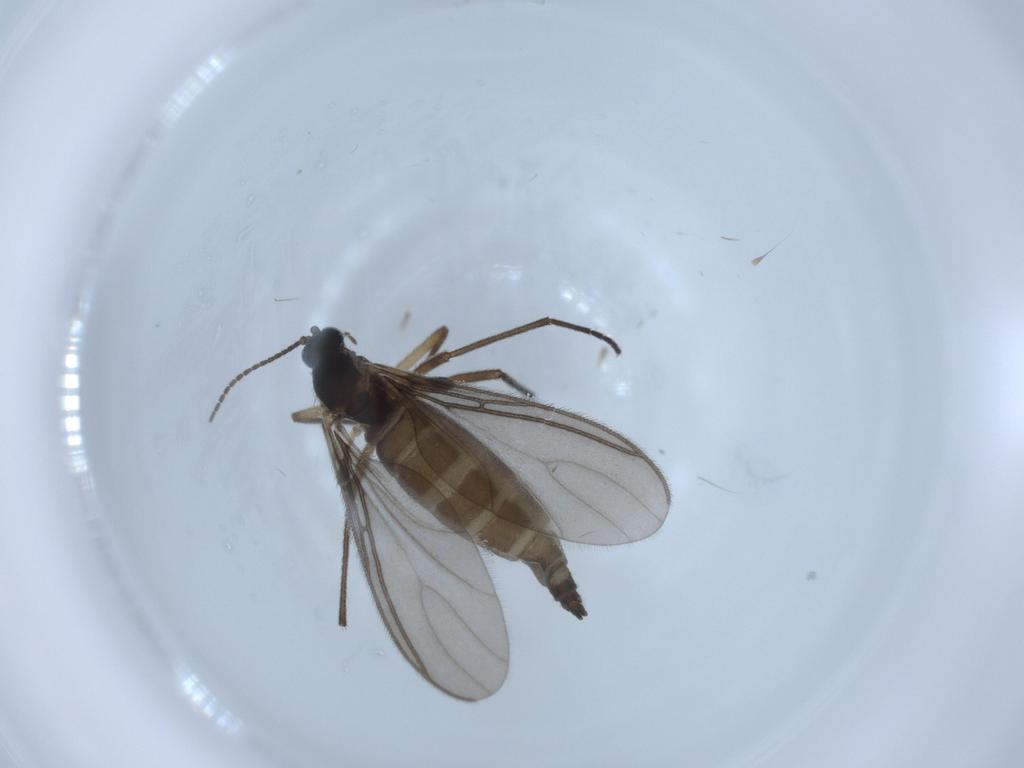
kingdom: Animalia
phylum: Arthropoda
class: Insecta
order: Diptera
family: Sciaridae
